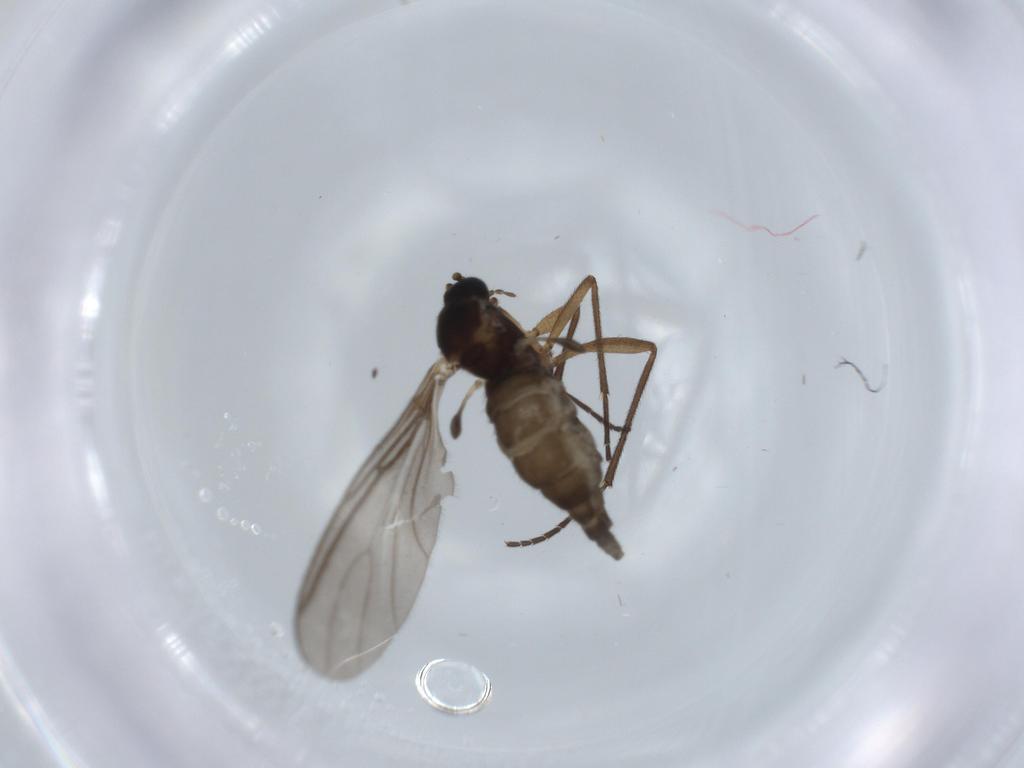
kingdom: Animalia
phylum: Arthropoda
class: Insecta
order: Diptera
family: Sciaridae
